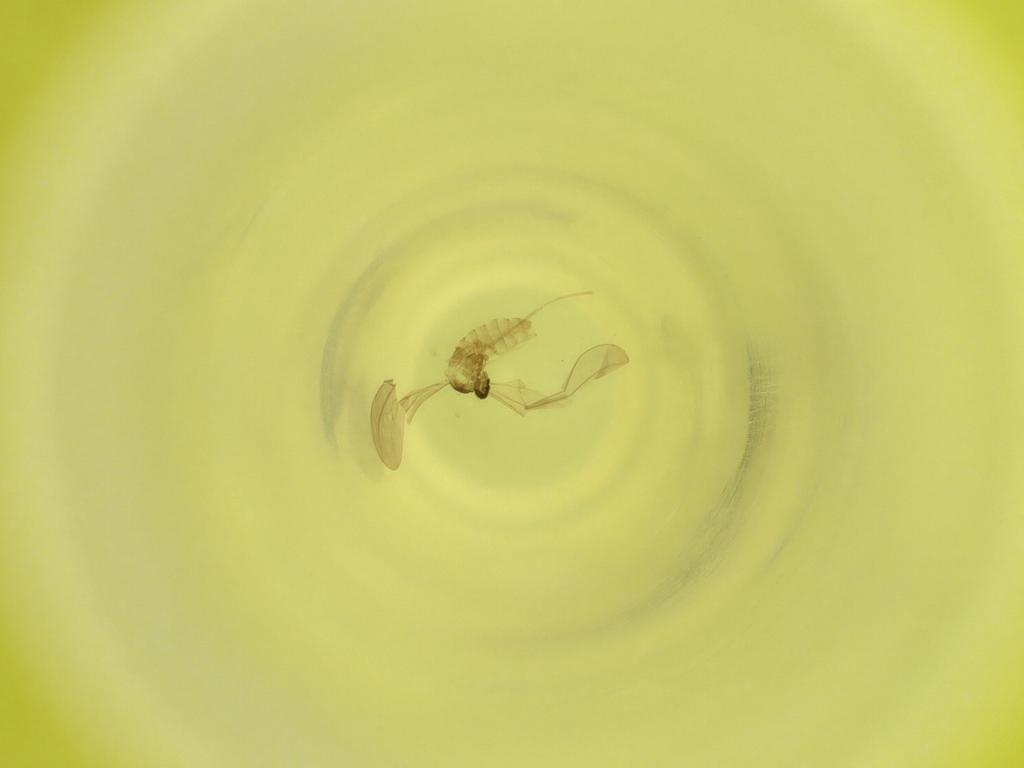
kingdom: Animalia
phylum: Arthropoda
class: Insecta
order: Diptera
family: Cecidomyiidae
